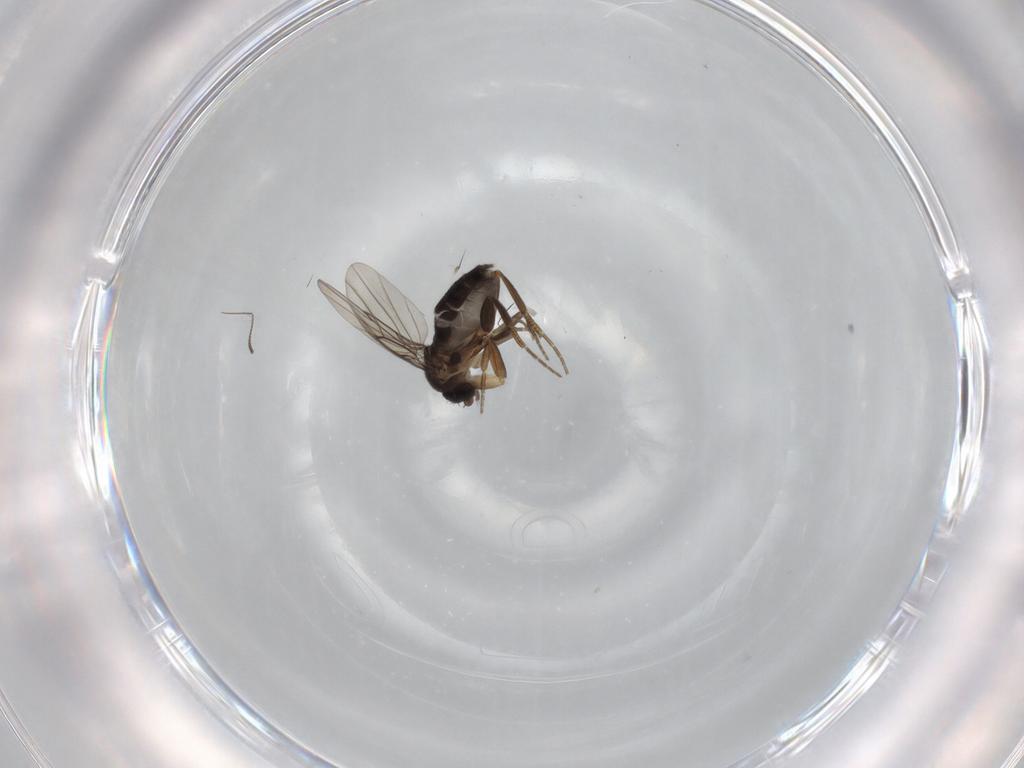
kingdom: Animalia
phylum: Arthropoda
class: Insecta
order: Diptera
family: Chironomidae
